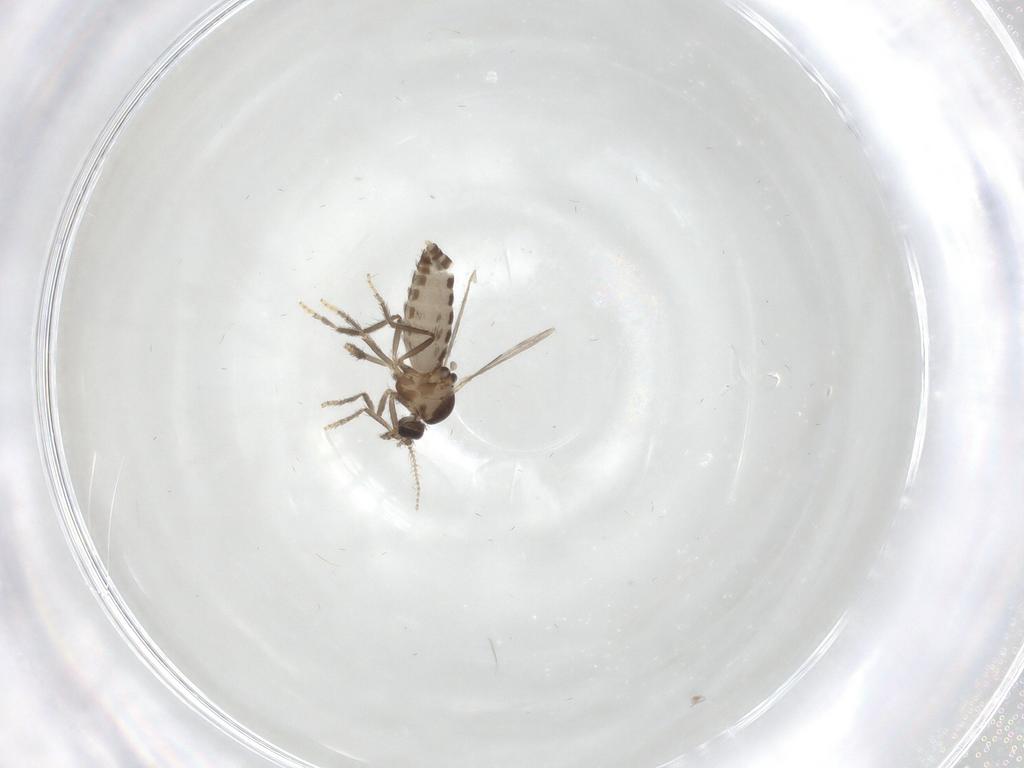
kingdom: Animalia
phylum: Arthropoda
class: Insecta
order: Diptera
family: Ceratopogonidae
